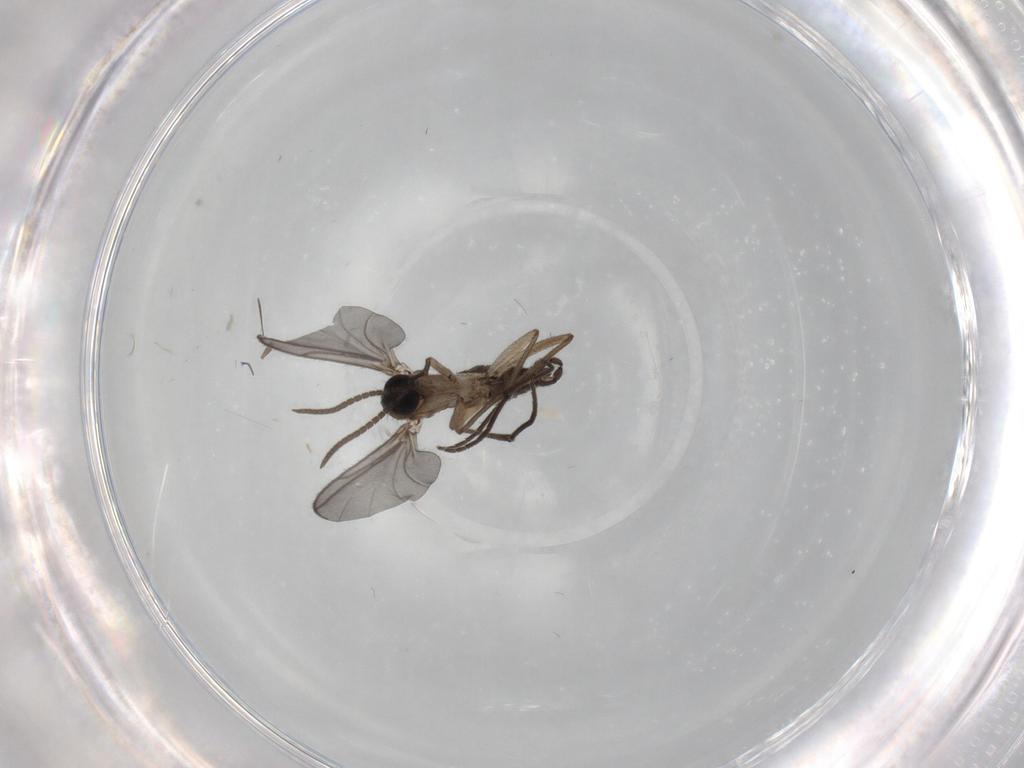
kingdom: Animalia
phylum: Arthropoda
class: Insecta
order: Diptera
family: Sciaridae
